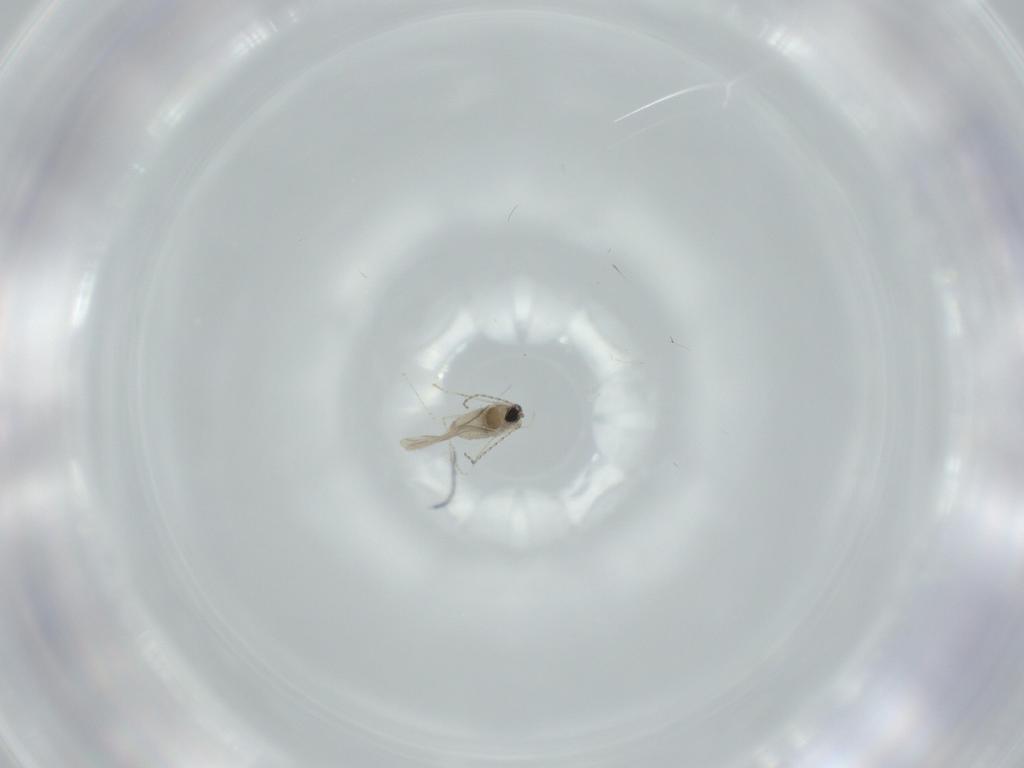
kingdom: Animalia
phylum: Arthropoda
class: Insecta
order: Diptera
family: Cecidomyiidae
